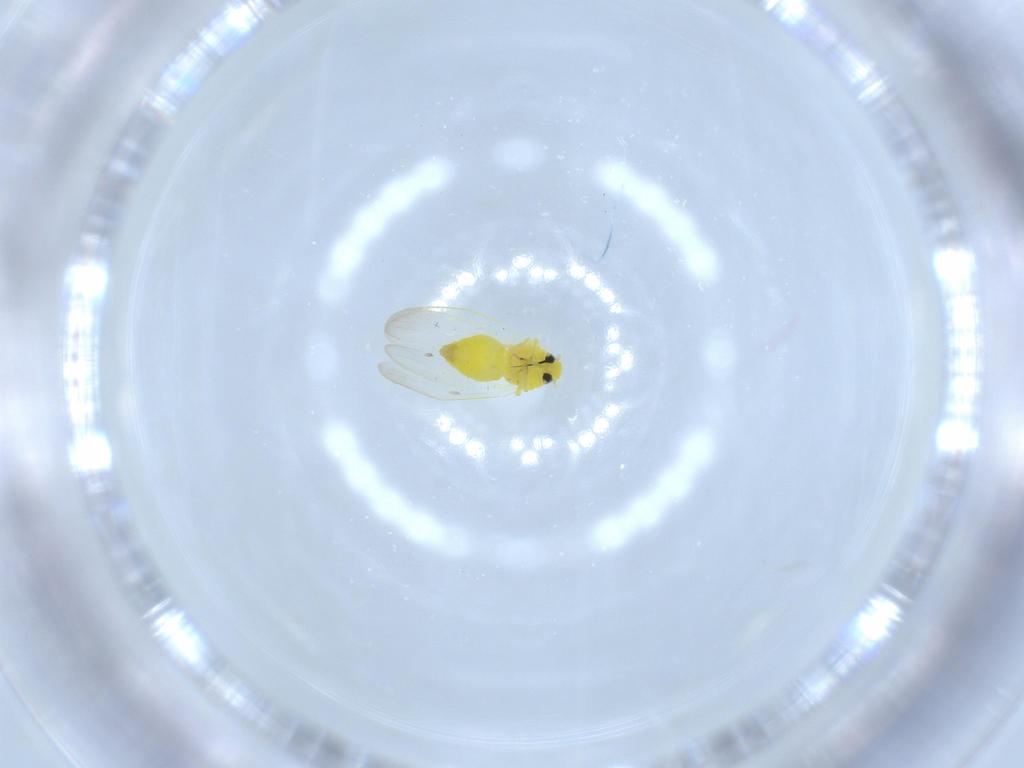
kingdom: Animalia
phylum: Arthropoda
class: Insecta
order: Hemiptera
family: Aleyrodidae
